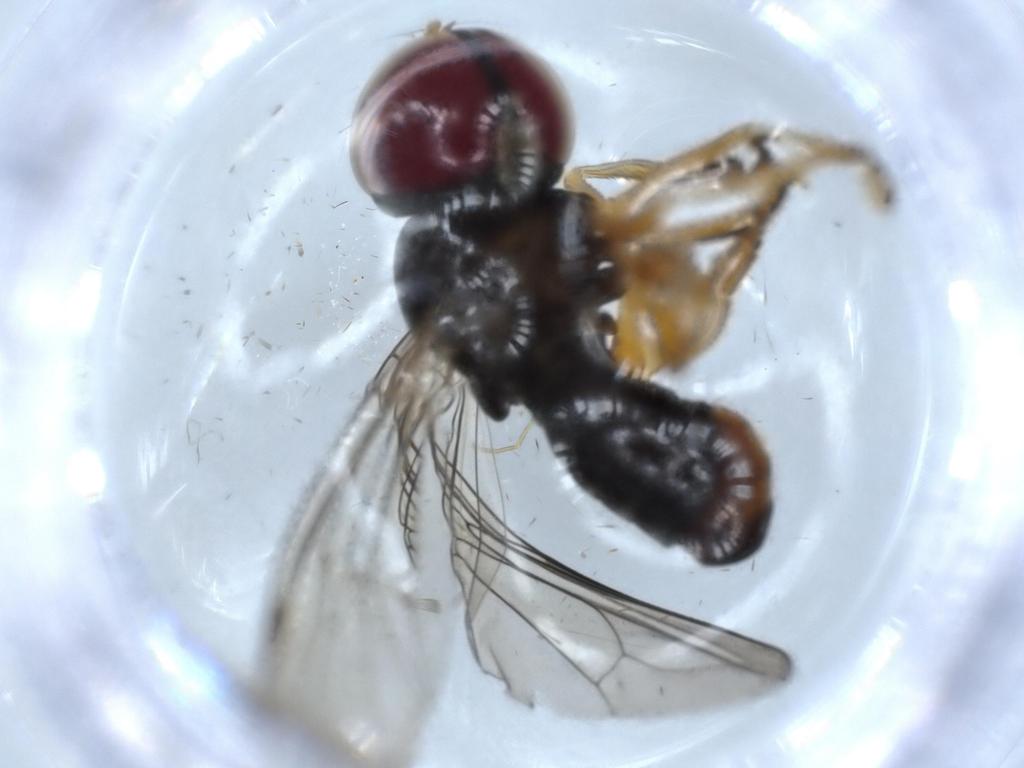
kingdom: Animalia
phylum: Arthropoda
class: Insecta
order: Diptera
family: Pipunculidae
